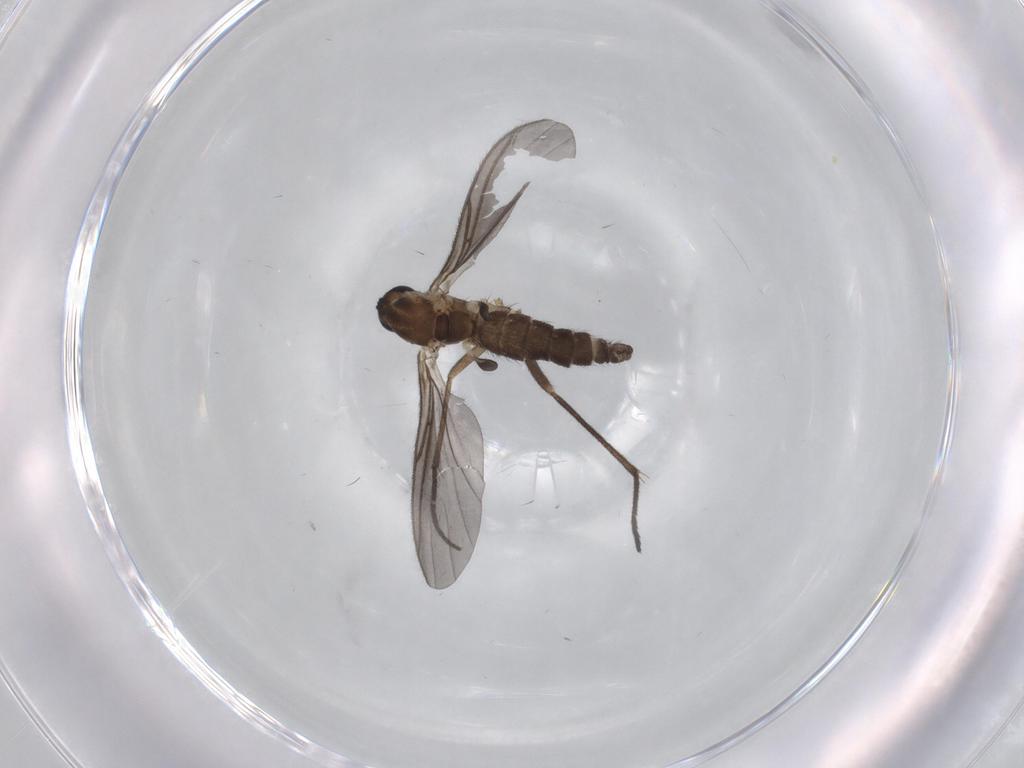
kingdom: Animalia
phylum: Arthropoda
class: Insecta
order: Diptera
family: Sciaridae
